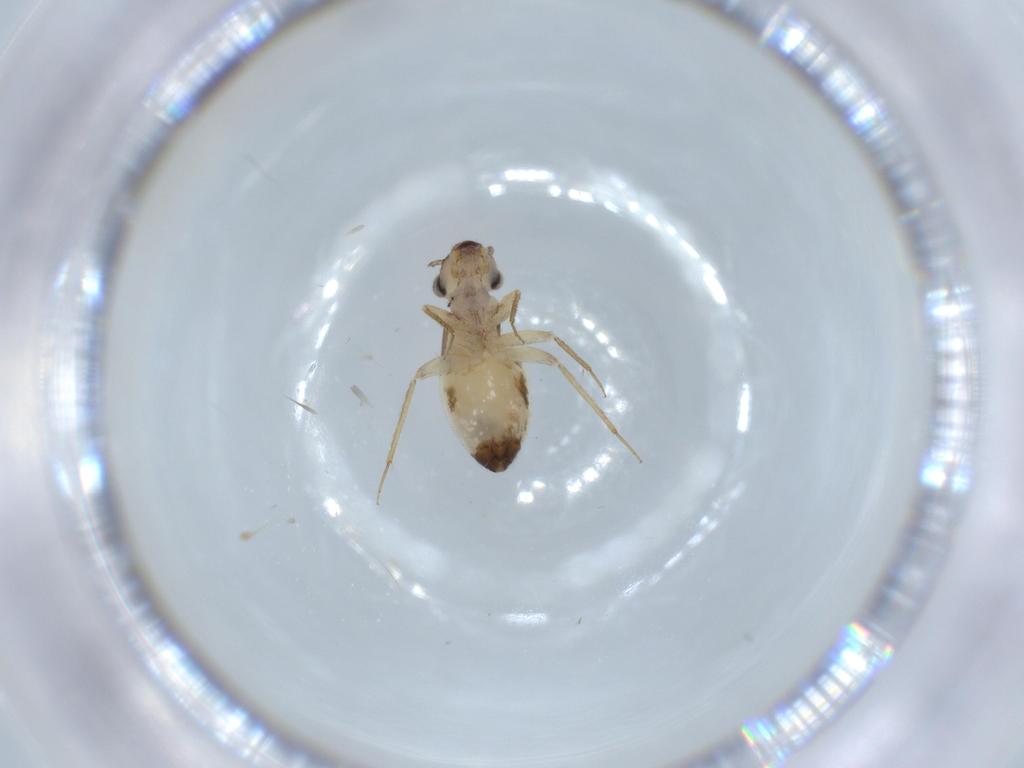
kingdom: Animalia
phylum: Arthropoda
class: Insecta
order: Psocodea
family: Lepidopsocidae
